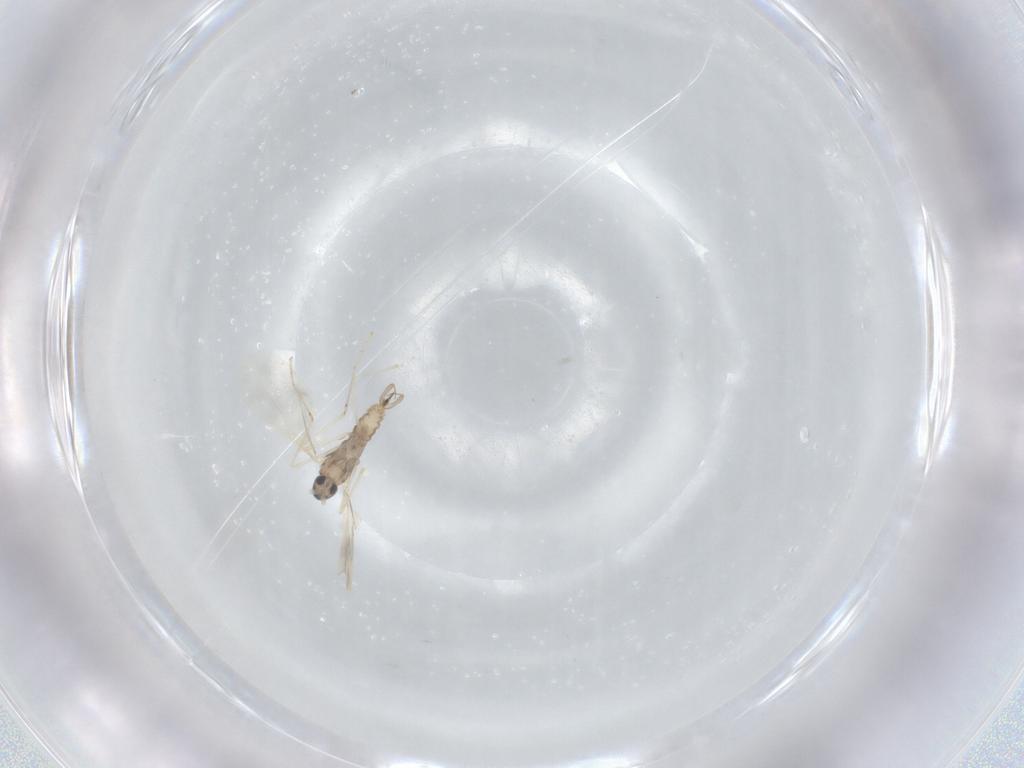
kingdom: Animalia
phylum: Arthropoda
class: Insecta
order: Diptera
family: Cecidomyiidae
